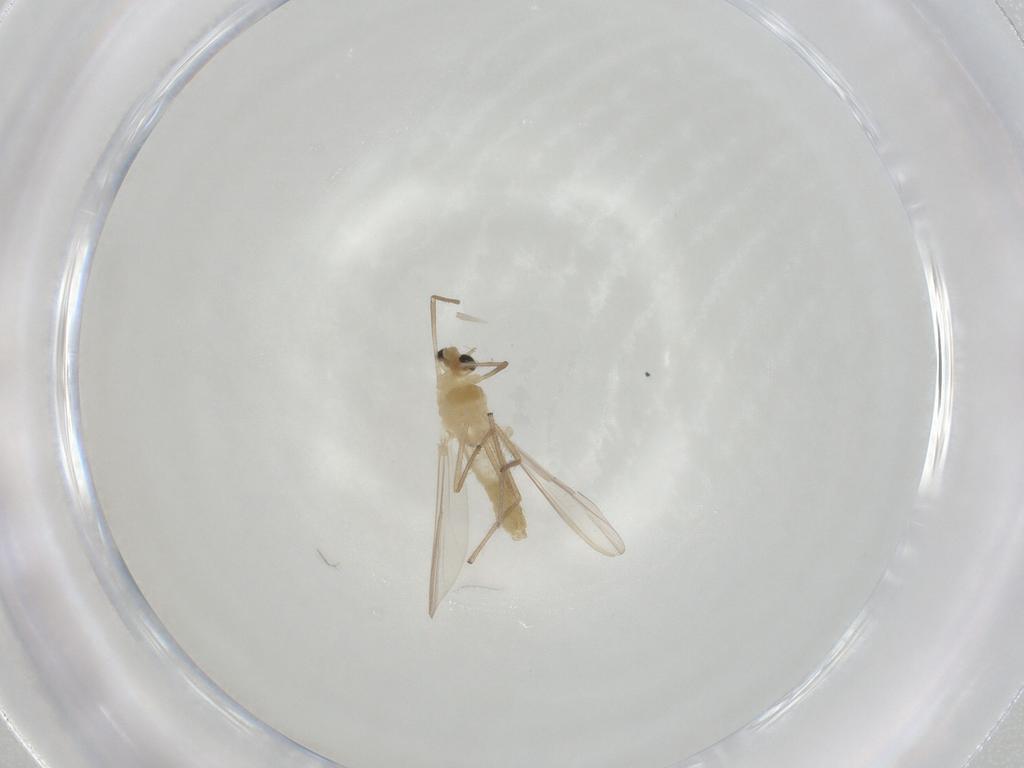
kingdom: Animalia
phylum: Arthropoda
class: Insecta
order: Diptera
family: Chironomidae
